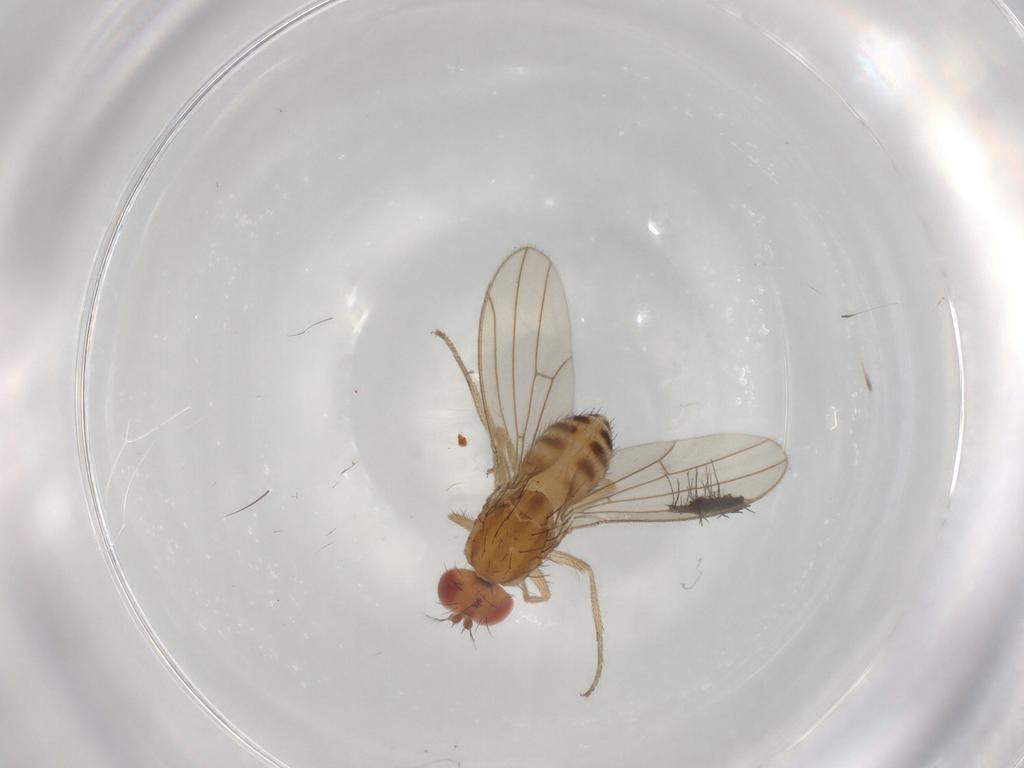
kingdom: Animalia
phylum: Arthropoda
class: Insecta
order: Diptera
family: Drosophilidae
